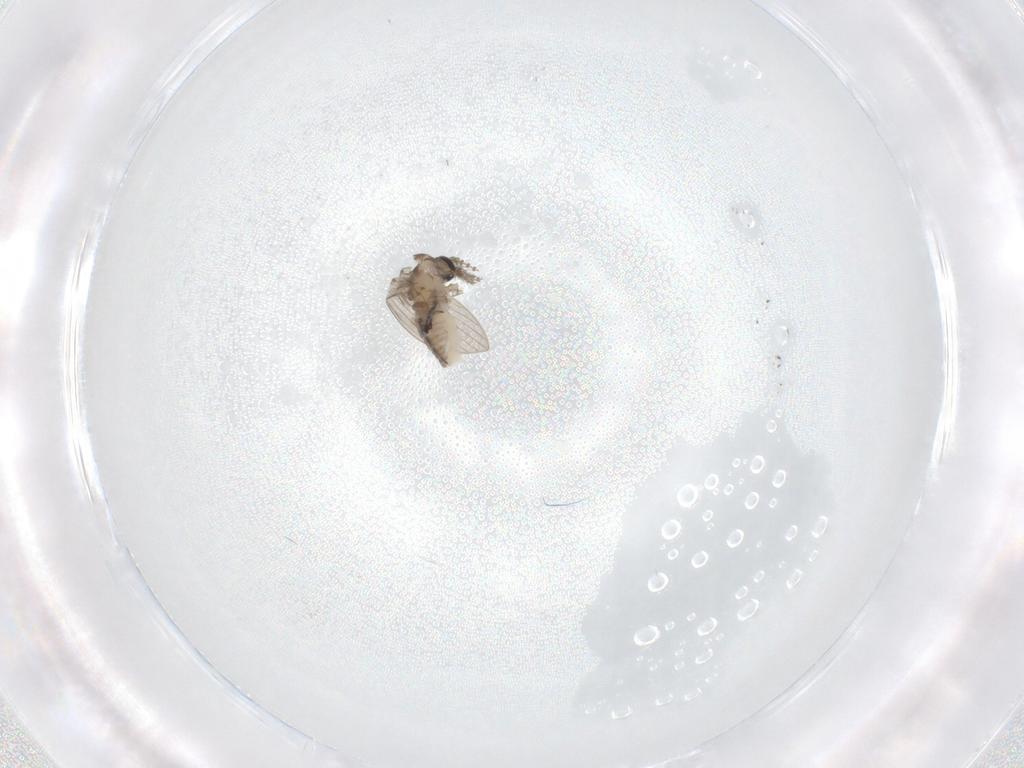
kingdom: Animalia
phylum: Arthropoda
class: Insecta
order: Diptera
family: Psychodidae
